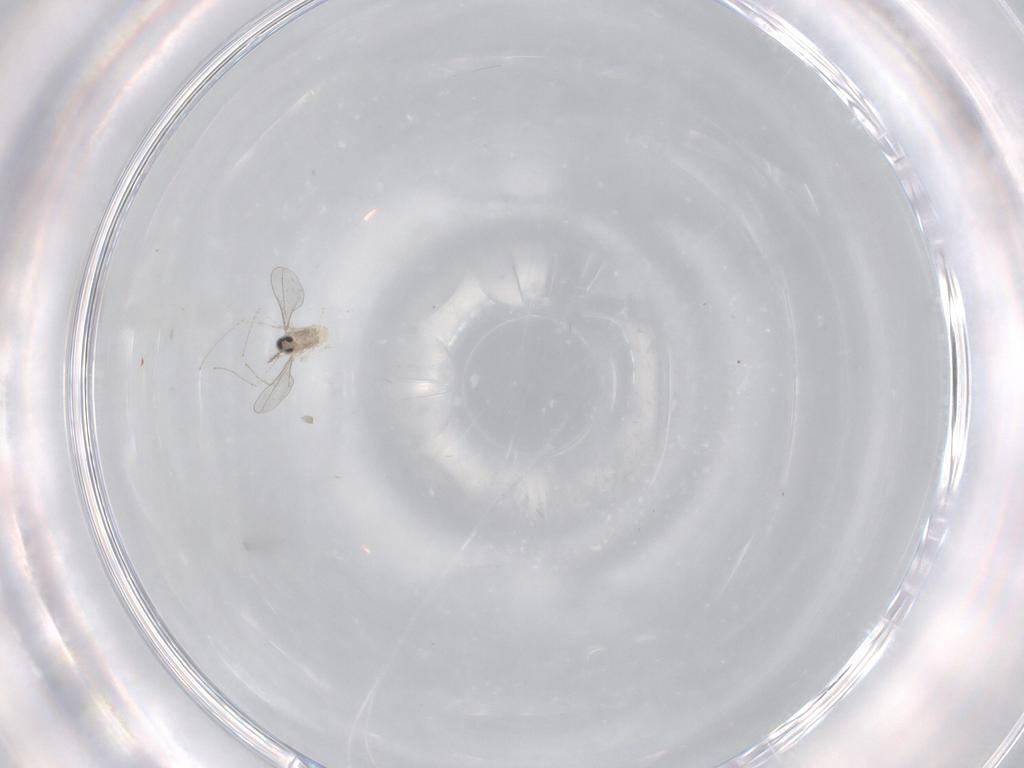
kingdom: Animalia
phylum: Arthropoda
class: Insecta
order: Diptera
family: Cecidomyiidae
